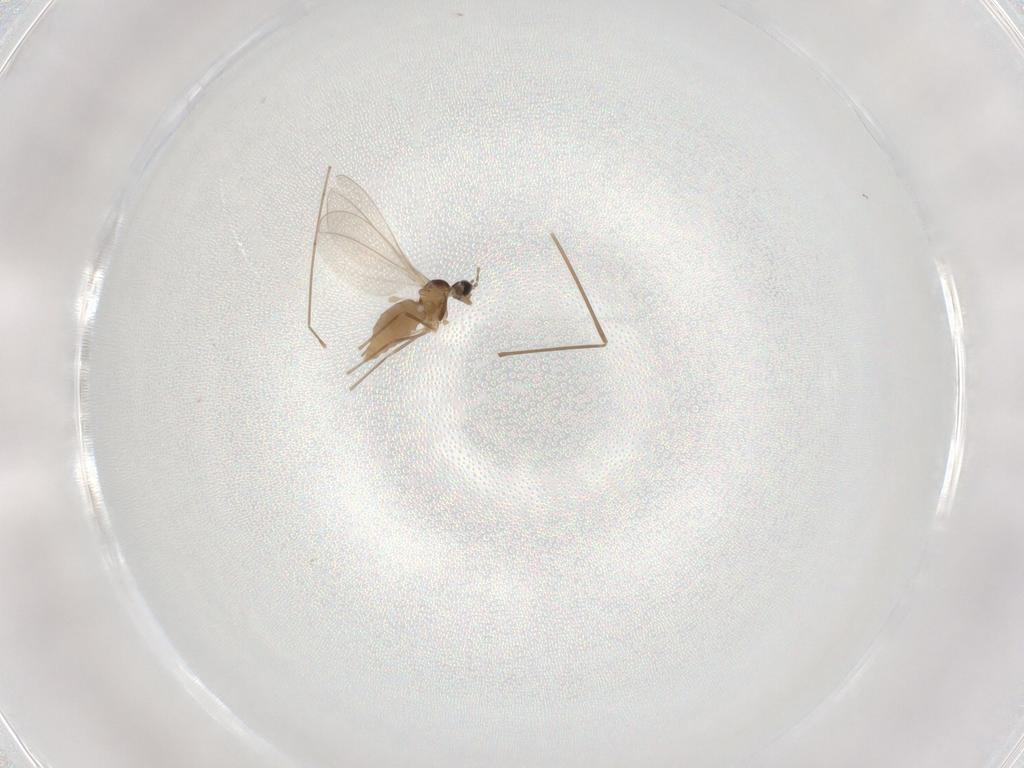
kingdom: Animalia
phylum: Arthropoda
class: Insecta
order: Diptera
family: Cecidomyiidae
